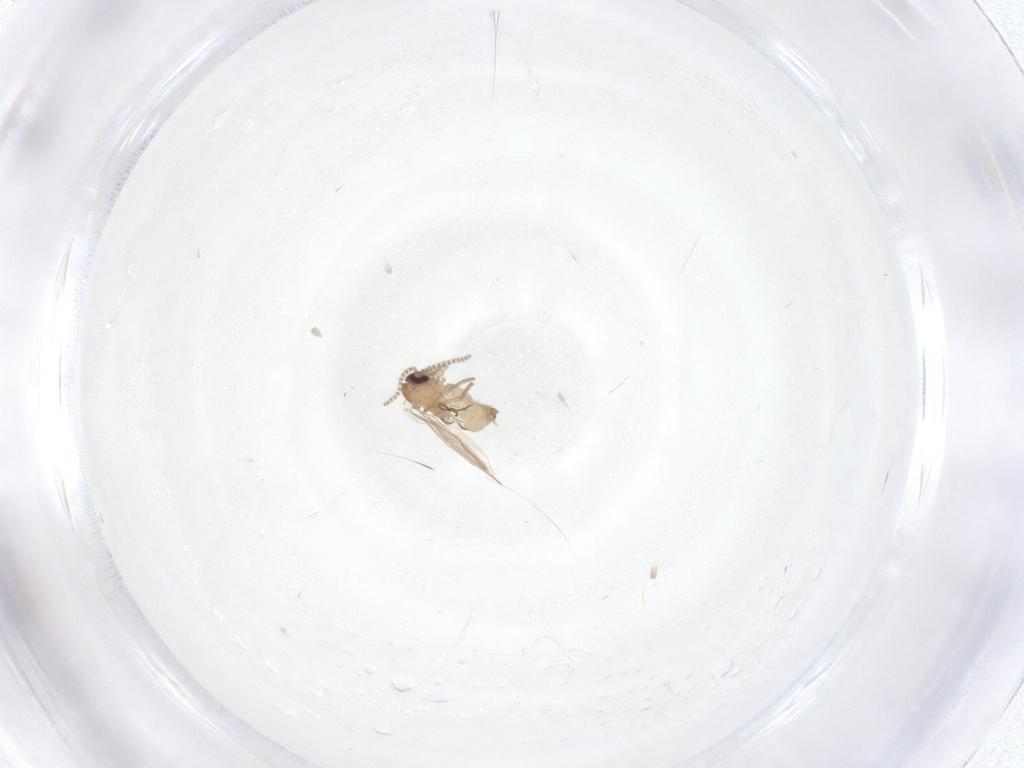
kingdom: Animalia
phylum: Arthropoda
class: Insecta
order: Diptera
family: Psychodidae
